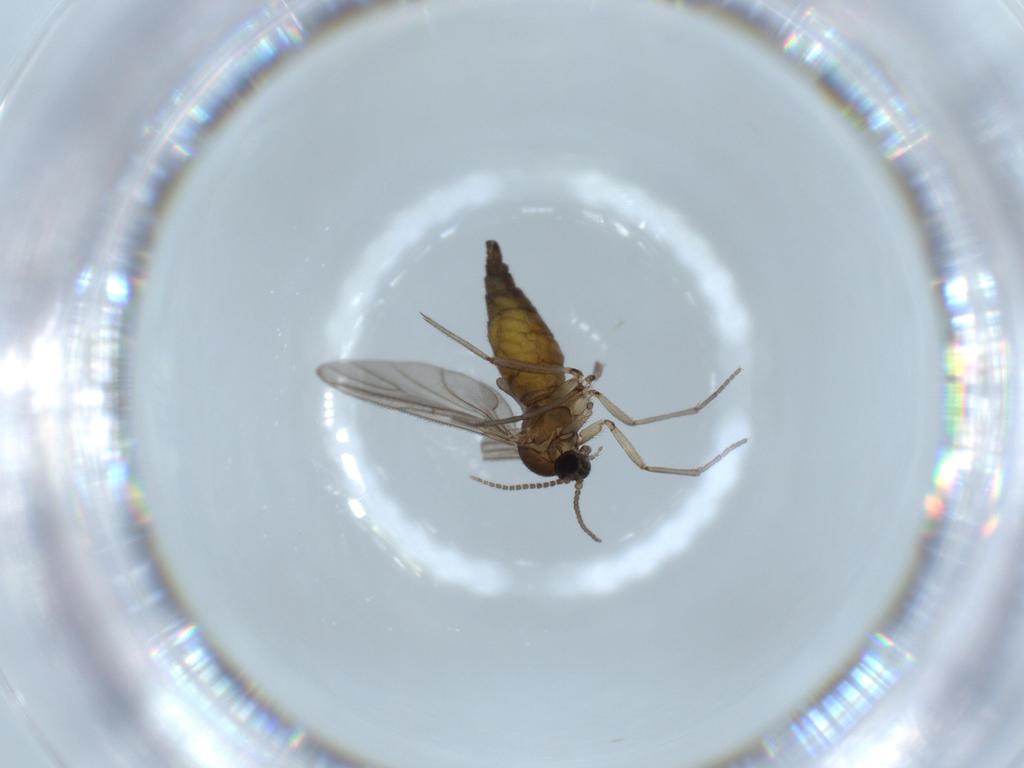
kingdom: Animalia
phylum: Arthropoda
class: Insecta
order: Diptera
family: Sciaridae
